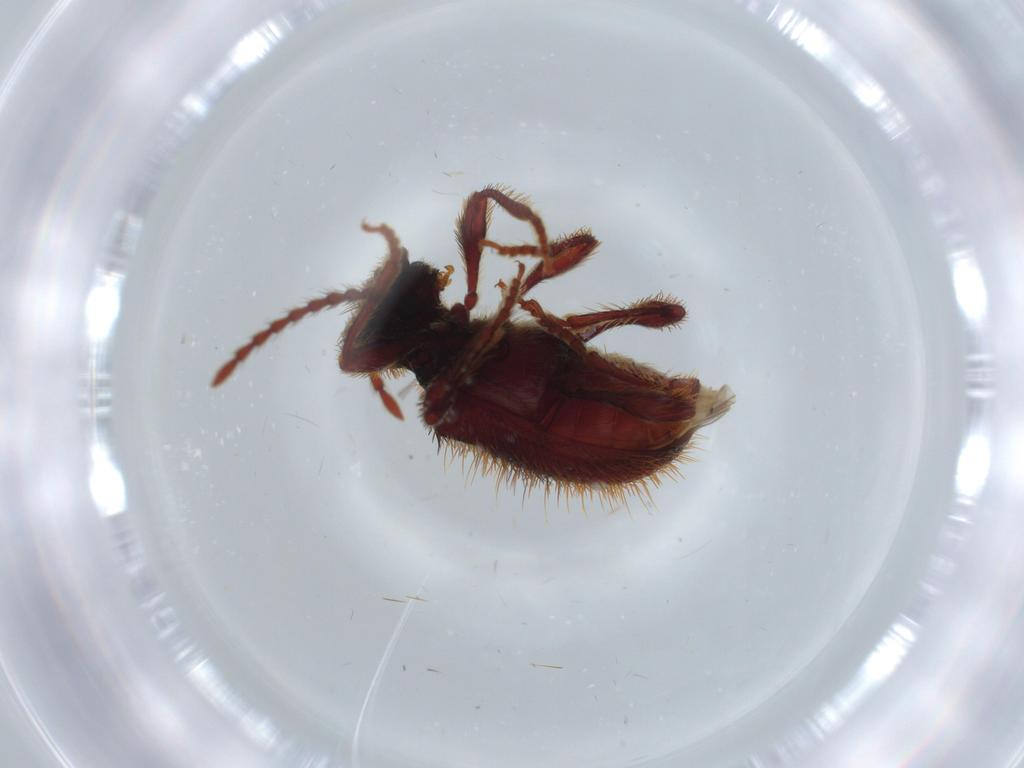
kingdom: Animalia
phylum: Arthropoda
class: Insecta
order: Coleoptera
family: Ptinidae
